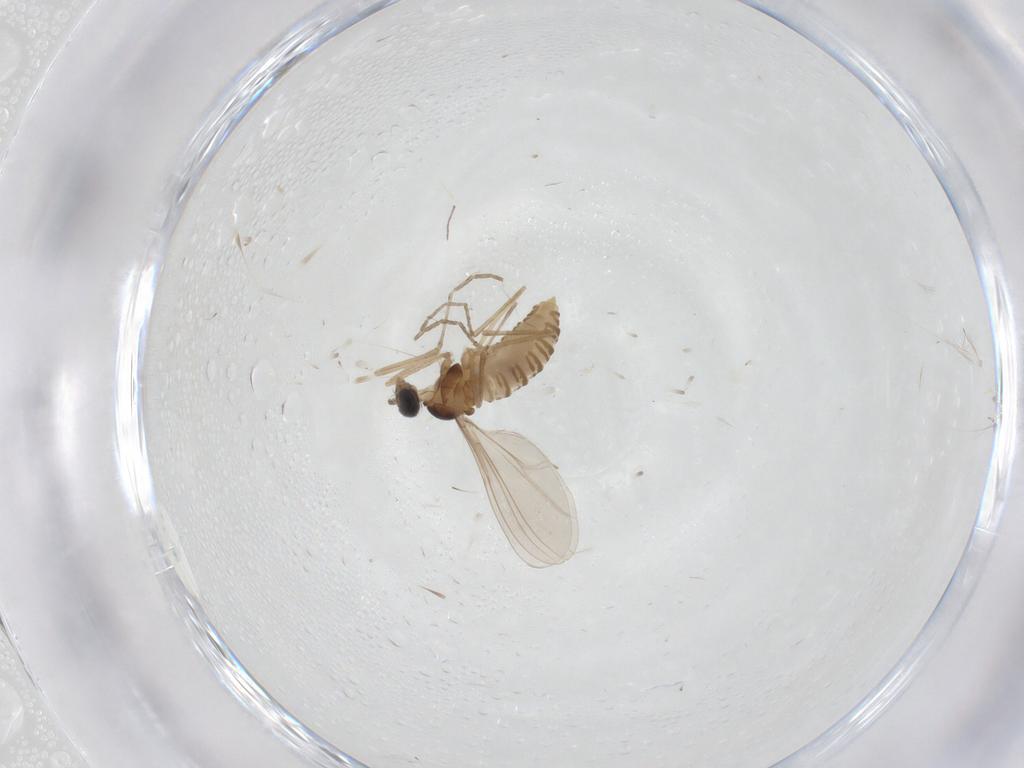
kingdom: Animalia
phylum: Arthropoda
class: Insecta
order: Diptera
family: Cecidomyiidae
